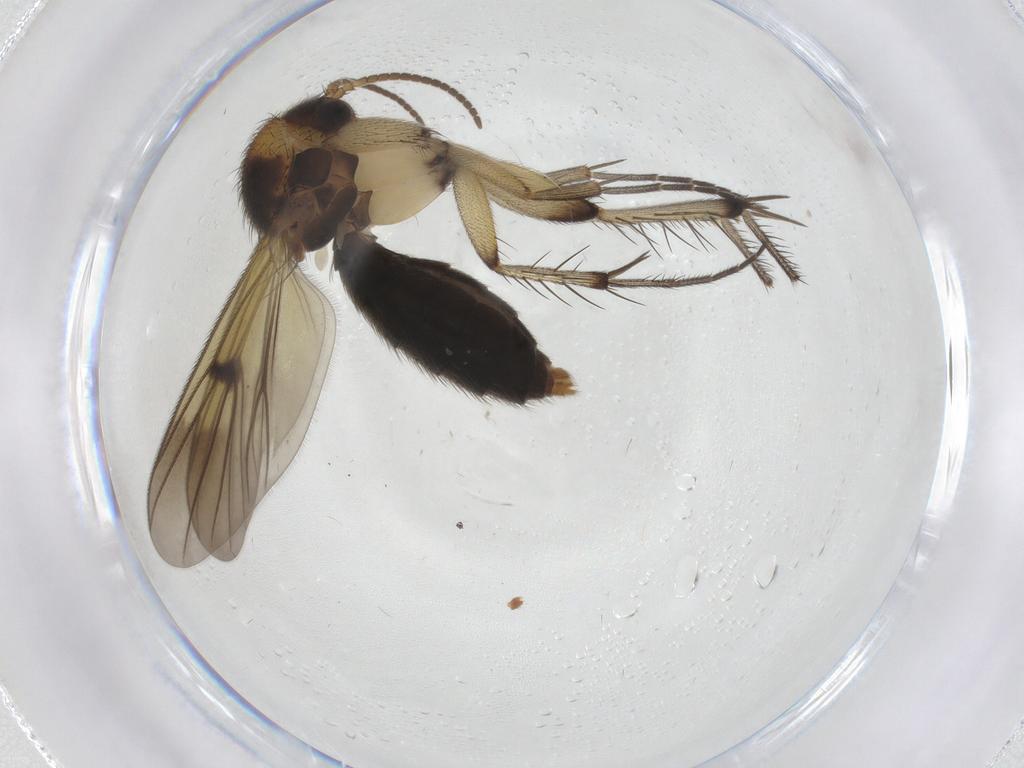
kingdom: Animalia
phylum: Arthropoda
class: Insecta
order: Diptera
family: Mycetophilidae
